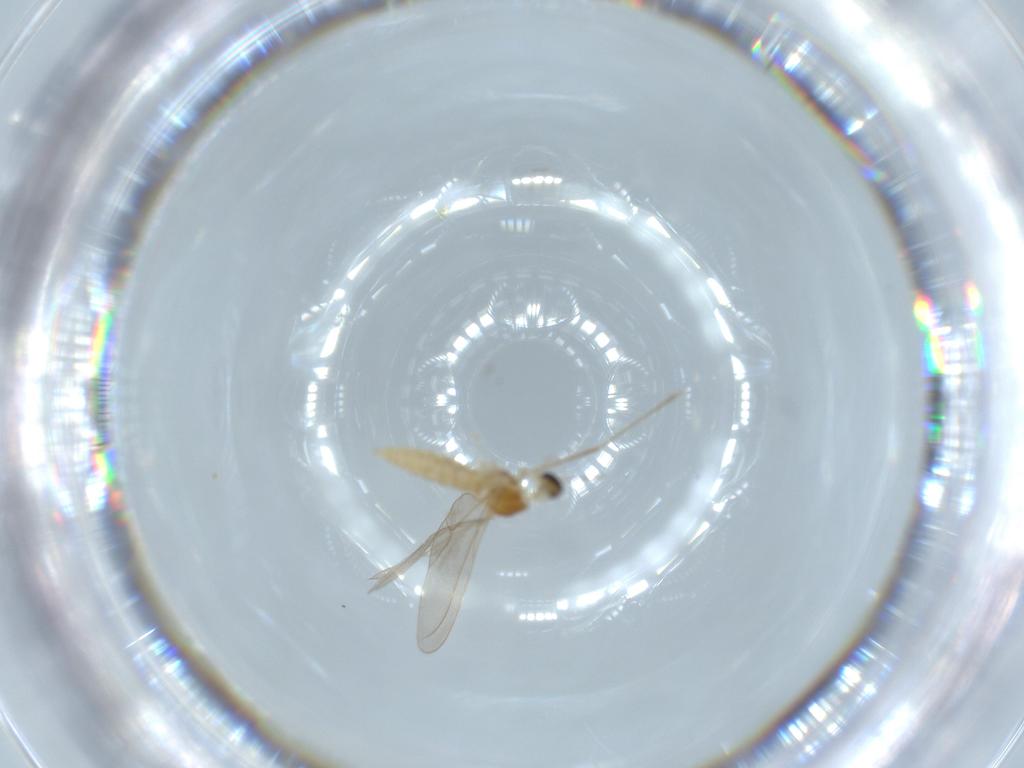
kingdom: Animalia
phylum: Arthropoda
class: Insecta
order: Diptera
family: Cecidomyiidae
